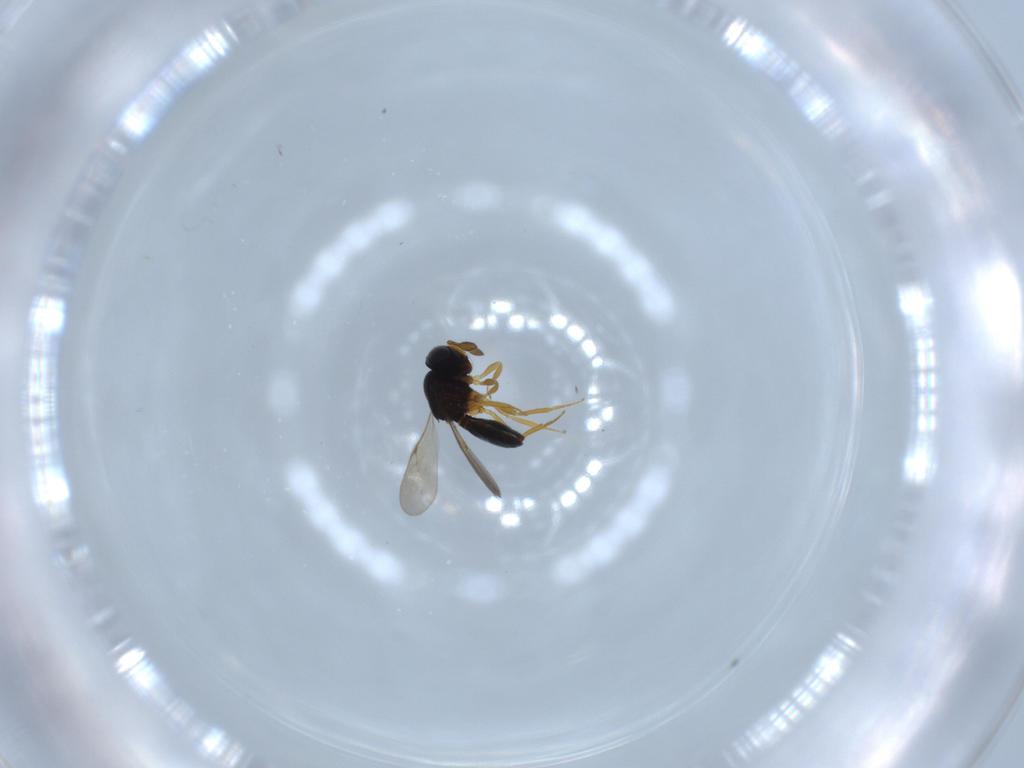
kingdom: Animalia
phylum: Arthropoda
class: Insecta
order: Hymenoptera
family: Scelionidae
